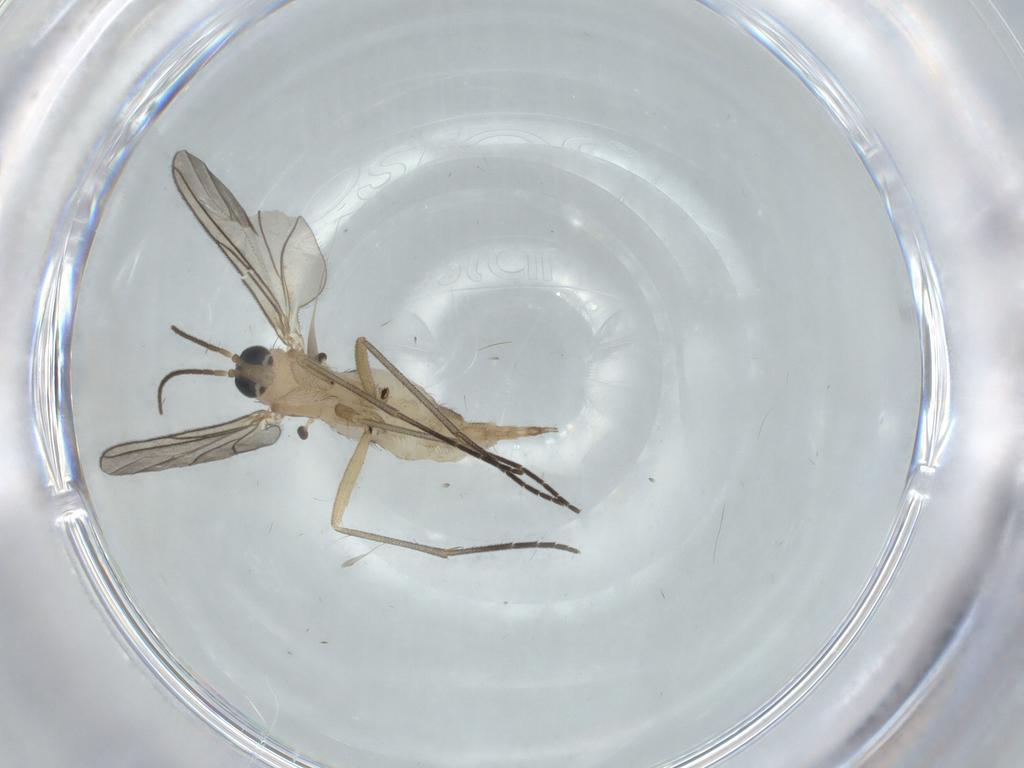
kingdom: Animalia
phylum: Arthropoda
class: Insecta
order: Diptera
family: Sciaridae
